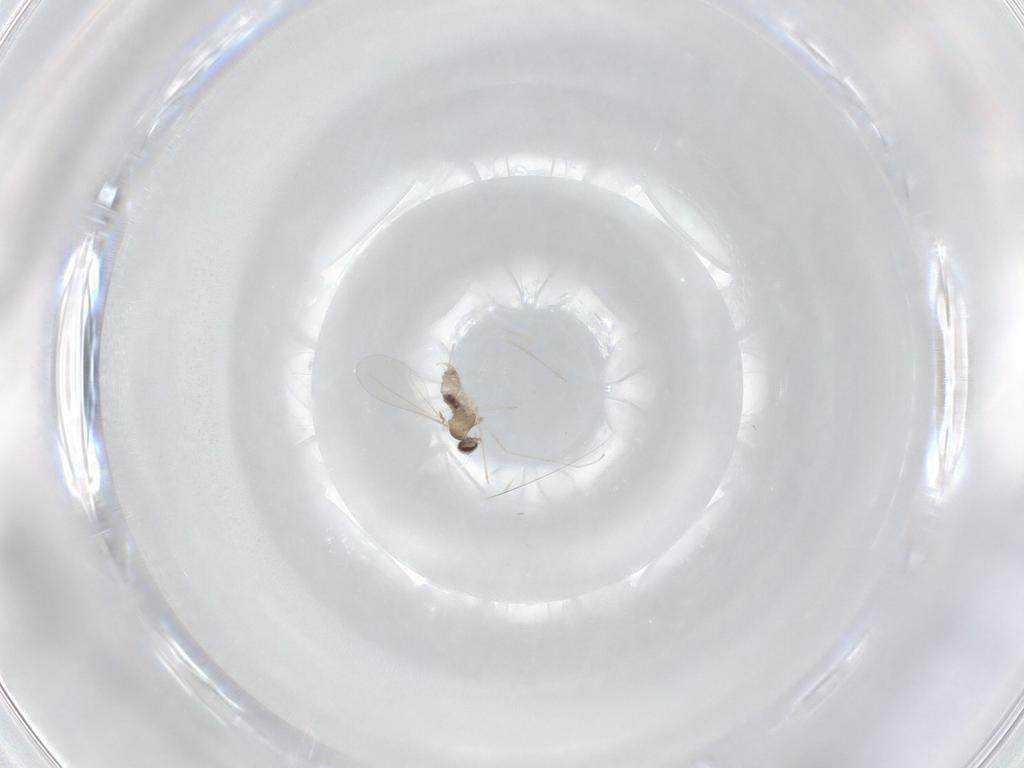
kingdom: Animalia
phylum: Arthropoda
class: Insecta
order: Diptera
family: Cecidomyiidae
